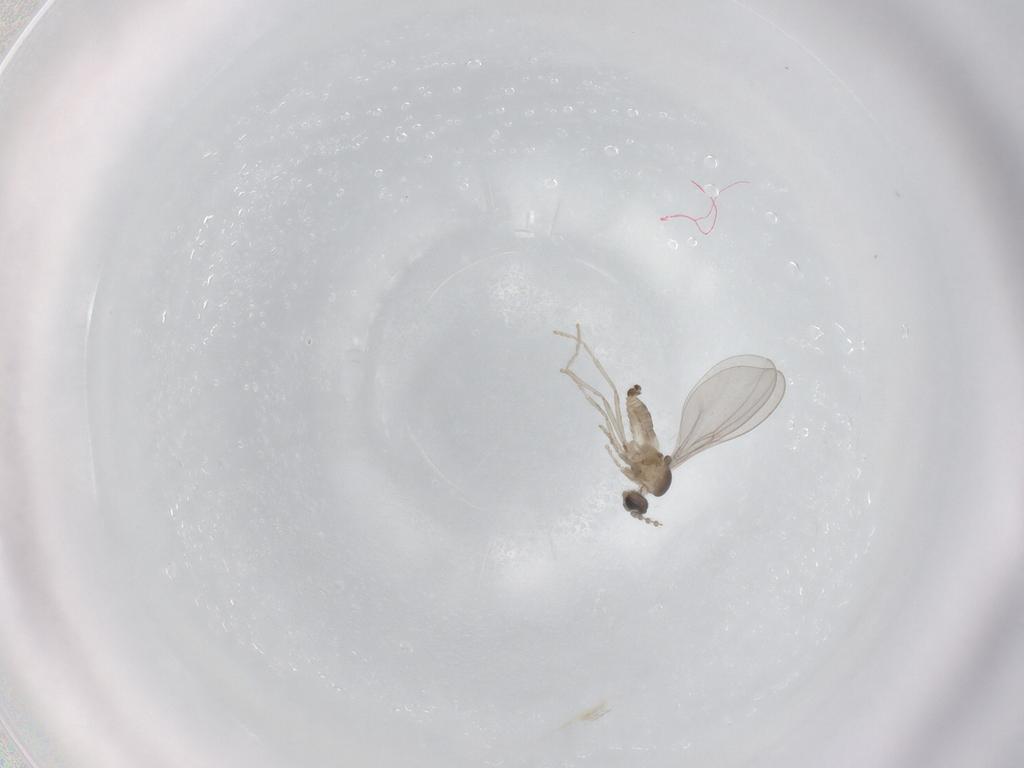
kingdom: Animalia
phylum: Arthropoda
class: Insecta
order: Diptera
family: Cecidomyiidae
